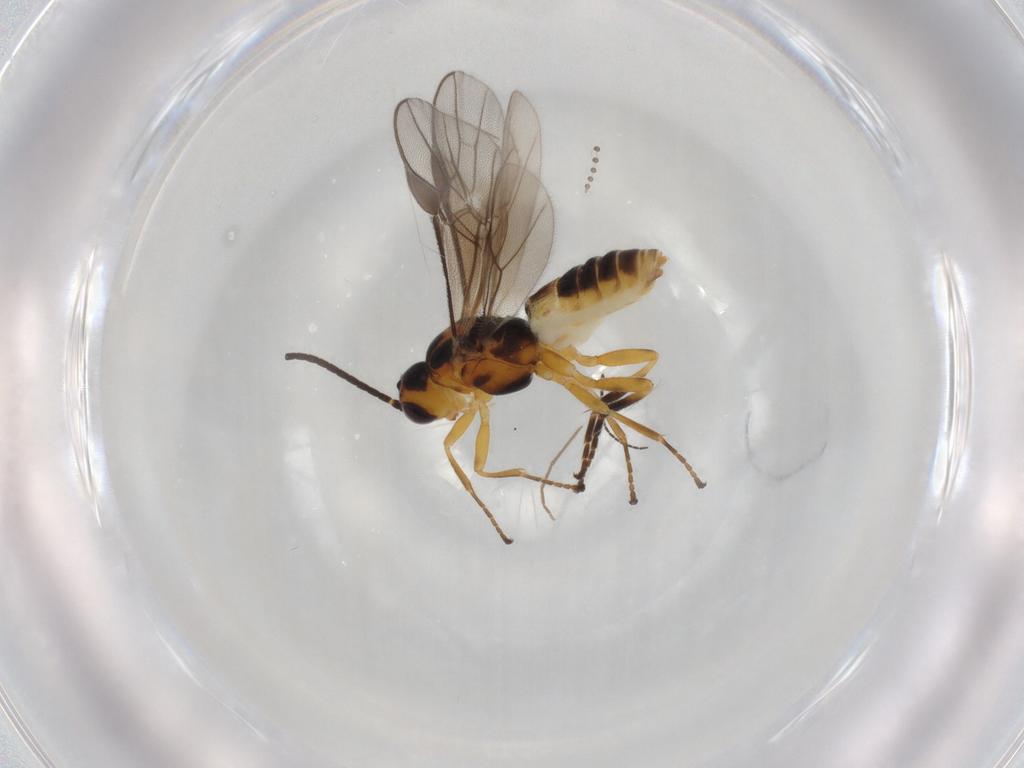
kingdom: Animalia
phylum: Arthropoda
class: Insecta
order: Hymenoptera
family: Braconidae
